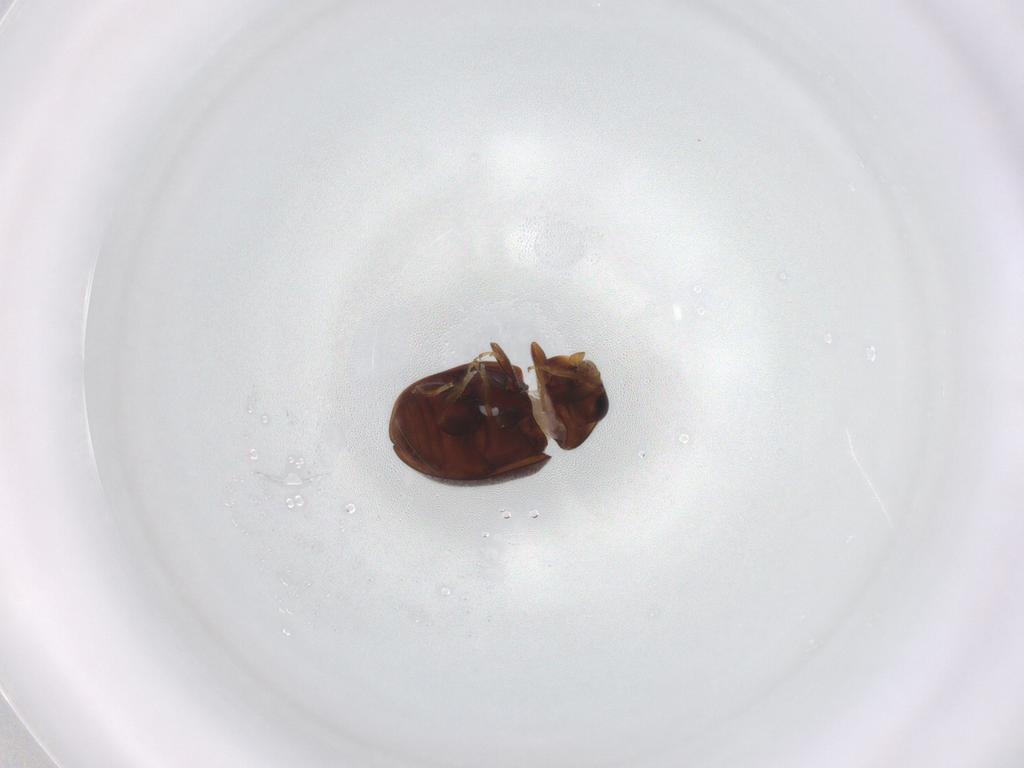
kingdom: Animalia
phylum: Arthropoda
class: Insecta
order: Coleoptera
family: Coccinellidae
